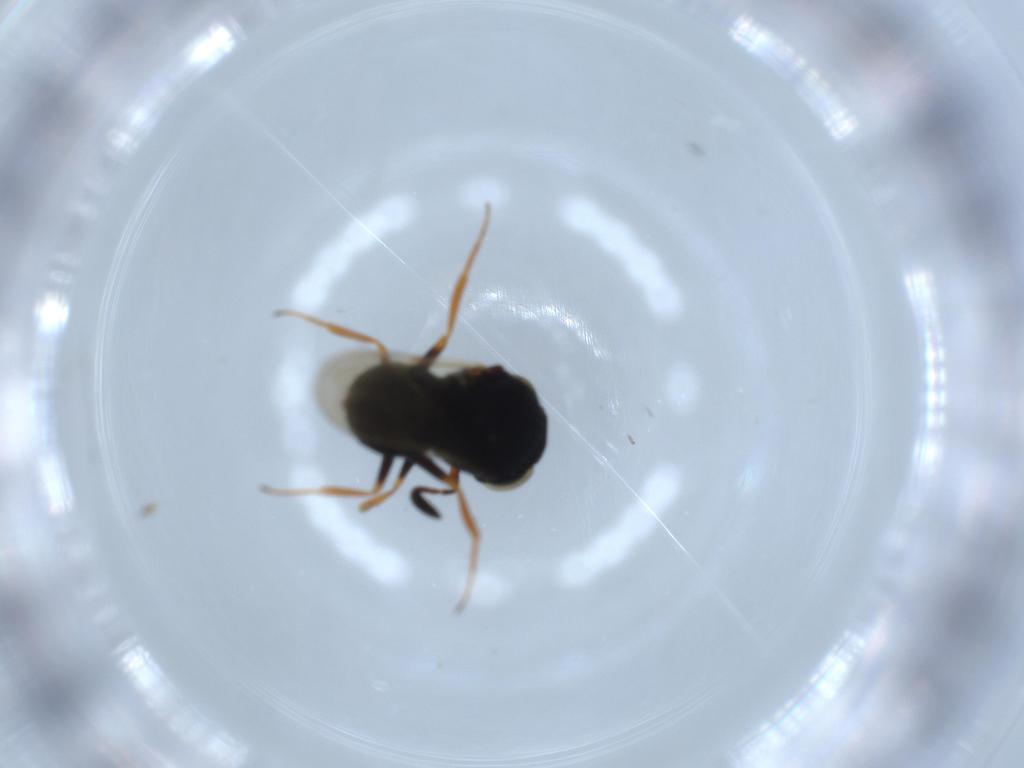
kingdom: Animalia
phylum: Arthropoda
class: Insecta
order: Hymenoptera
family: Scelionidae
